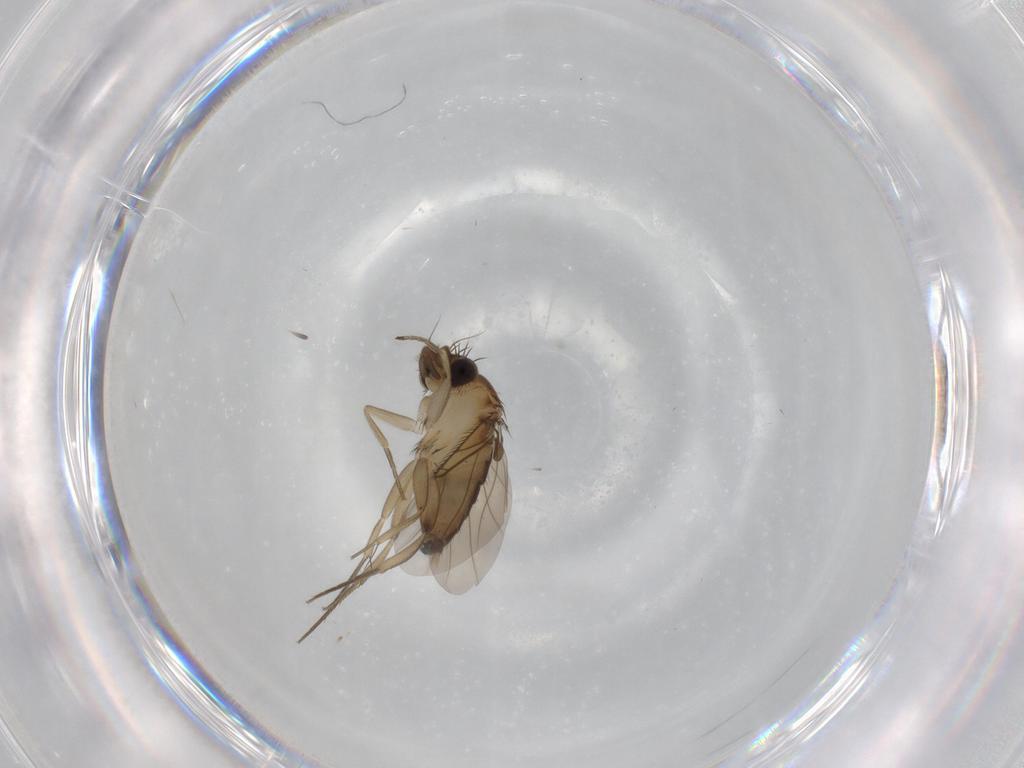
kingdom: Animalia
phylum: Arthropoda
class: Insecta
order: Diptera
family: Phoridae
